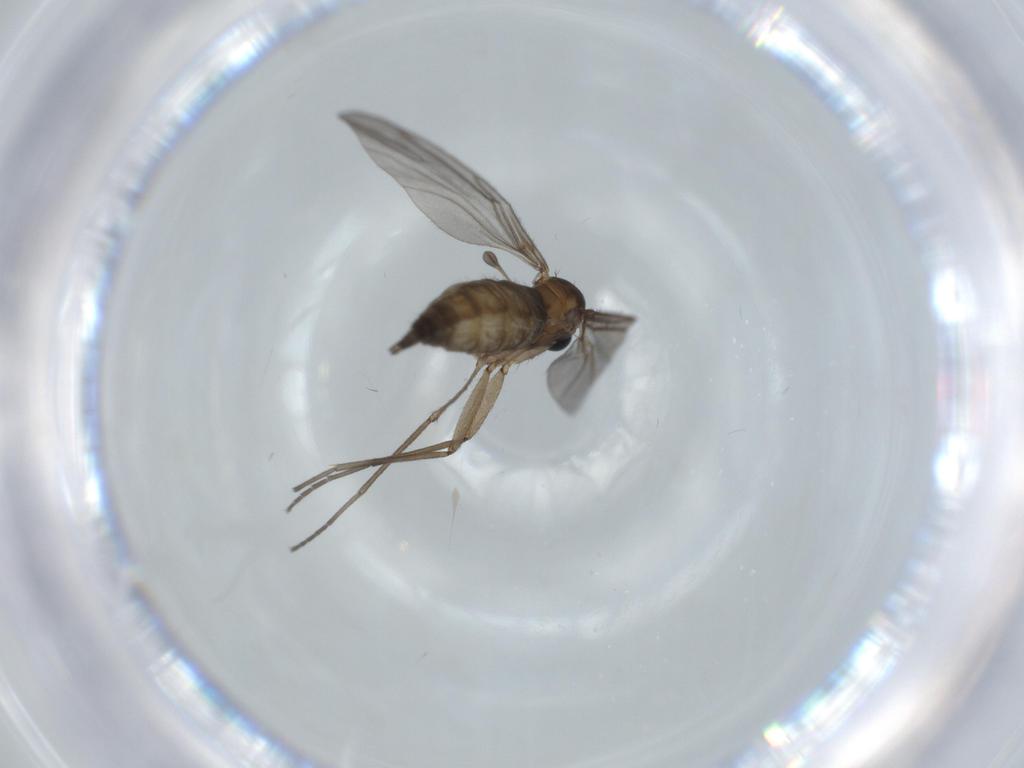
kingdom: Animalia
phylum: Arthropoda
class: Insecta
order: Diptera
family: Sciaridae
